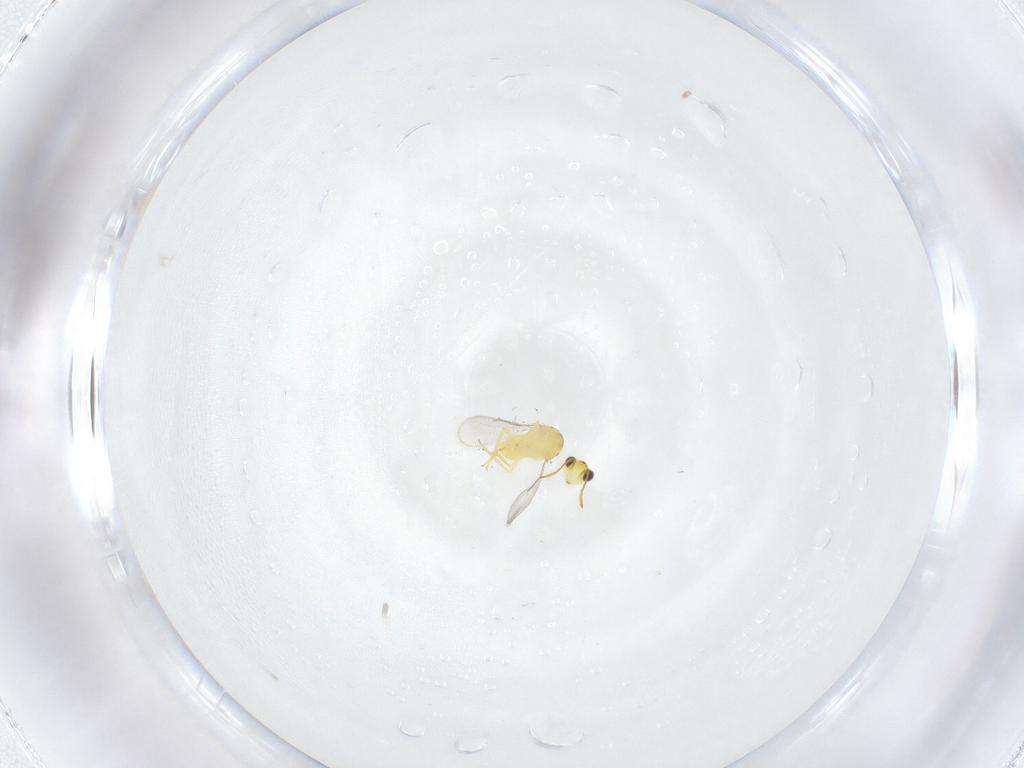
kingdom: Animalia
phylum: Arthropoda
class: Insecta
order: Hymenoptera
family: Aphelinidae
